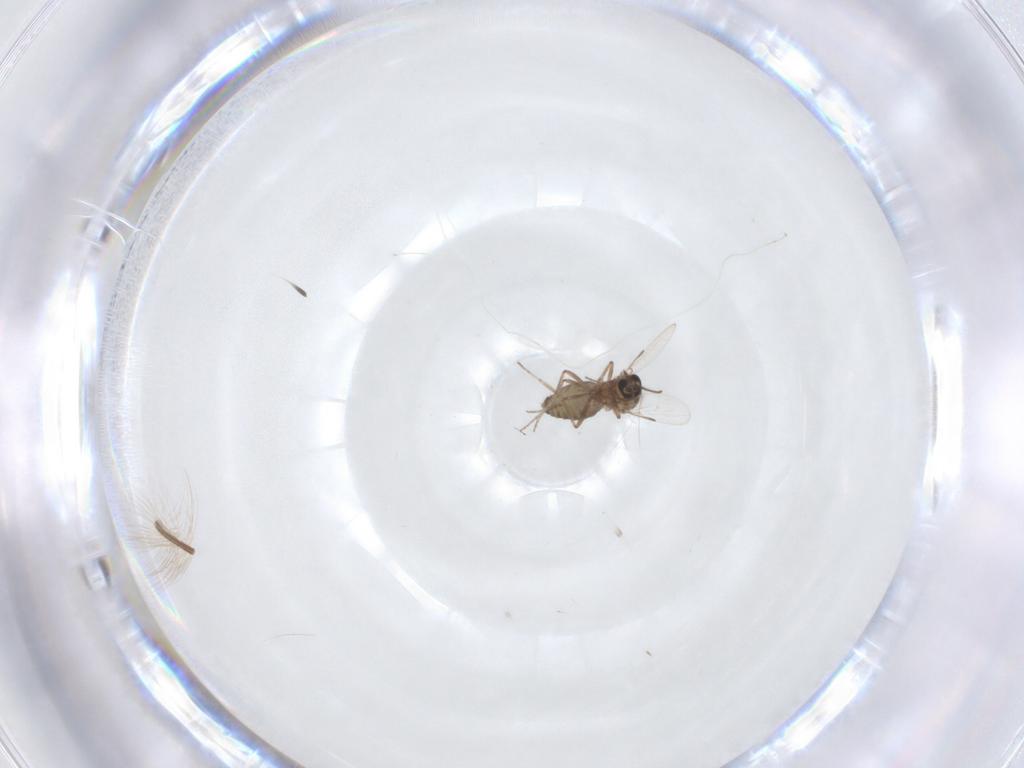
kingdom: Animalia
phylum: Arthropoda
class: Insecta
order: Diptera
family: Ceratopogonidae
